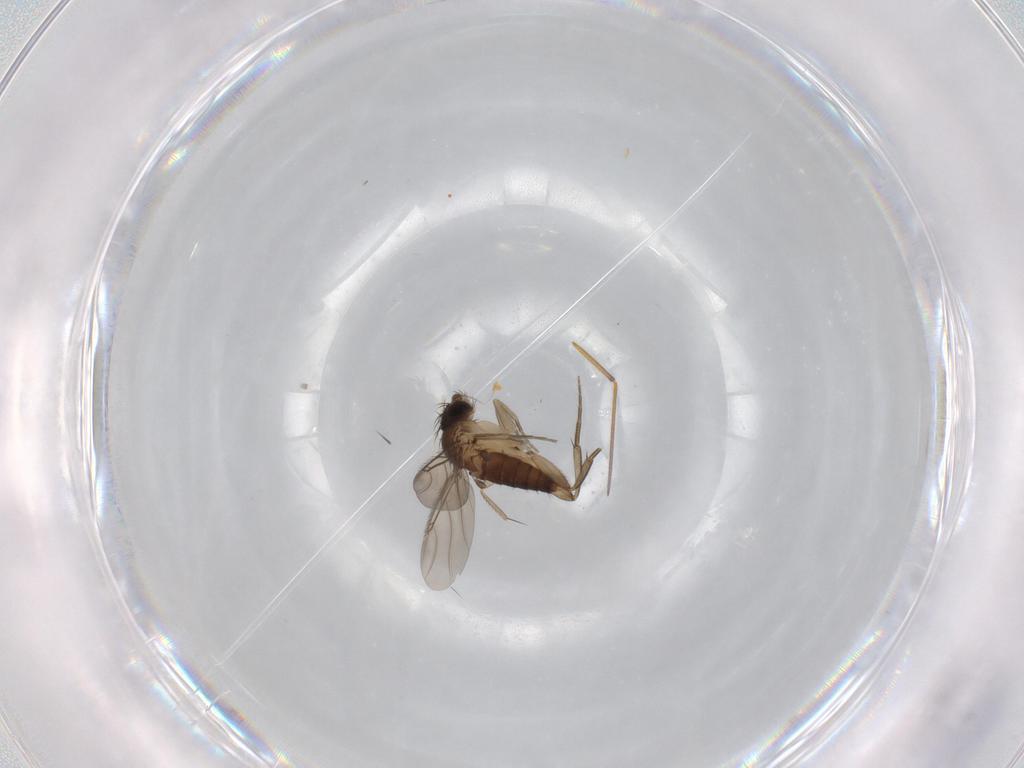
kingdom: Animalia
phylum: Arthropoda
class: Insecta
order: Diptera
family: Phoridae
